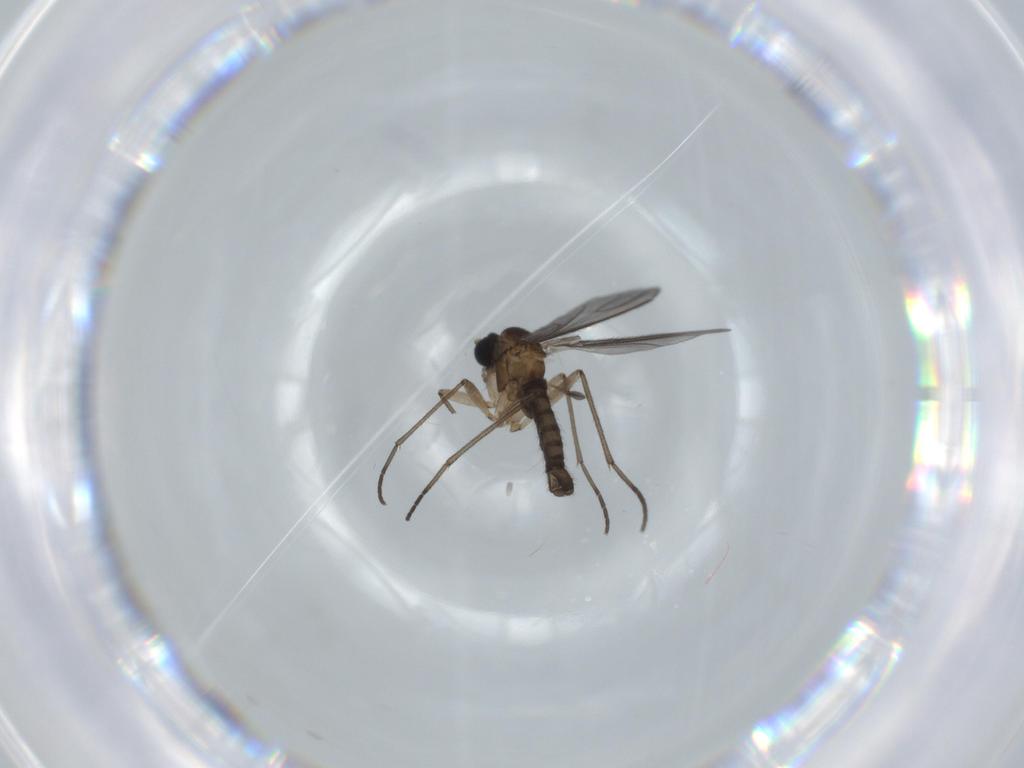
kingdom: Animalia
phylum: Arthropoda
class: Insecta
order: Diptera
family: Sciaridae
